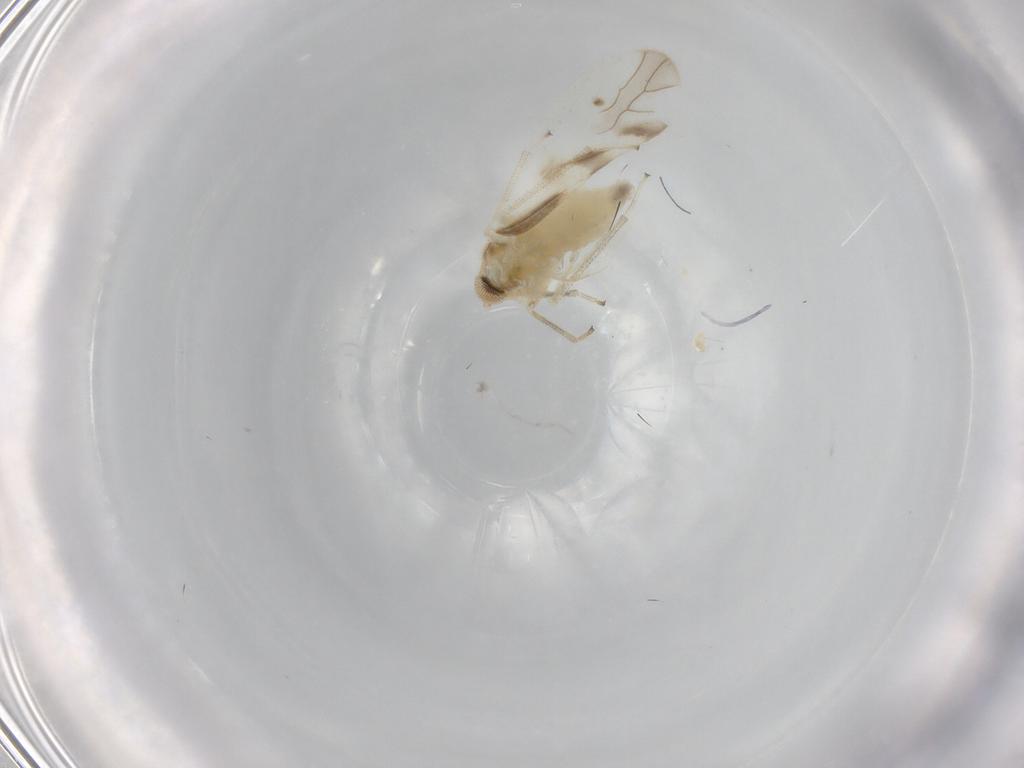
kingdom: Animalia
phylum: Arthropoda
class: Insecta
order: Psocodea
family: Caeciliusidae
